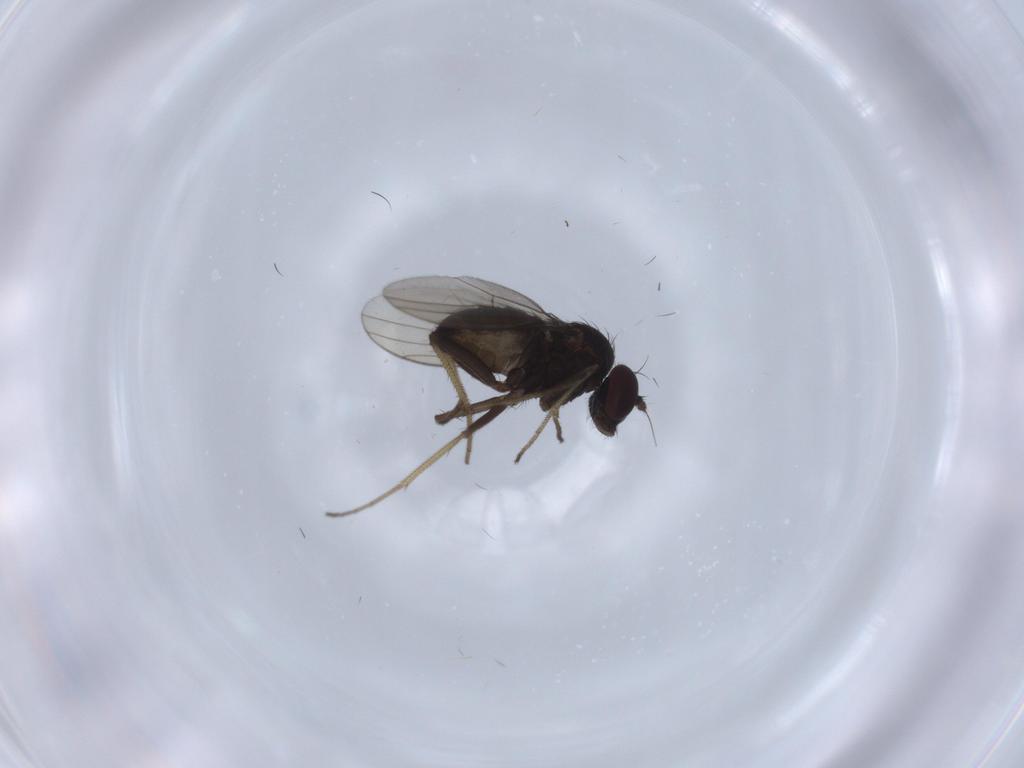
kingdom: Animalia
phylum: Arthropoda
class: Insecta
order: Diptera
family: Dolichopodidae
